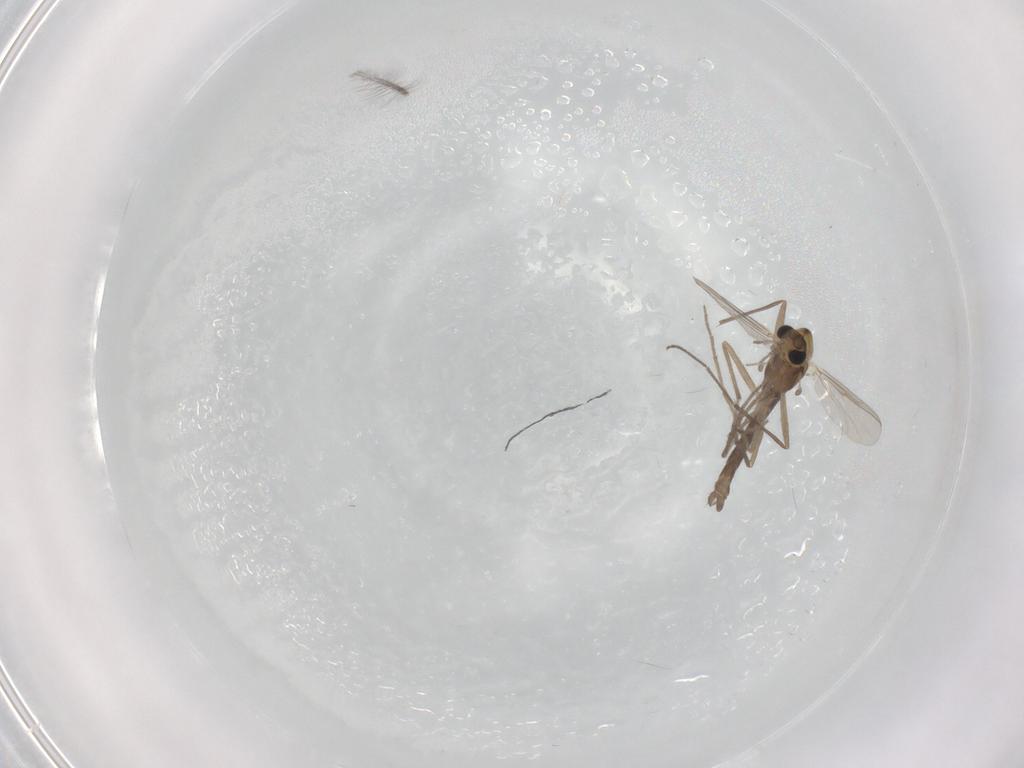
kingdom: Animalia
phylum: Arthropoda
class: Insecta
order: Diptera
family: Chironomidae
